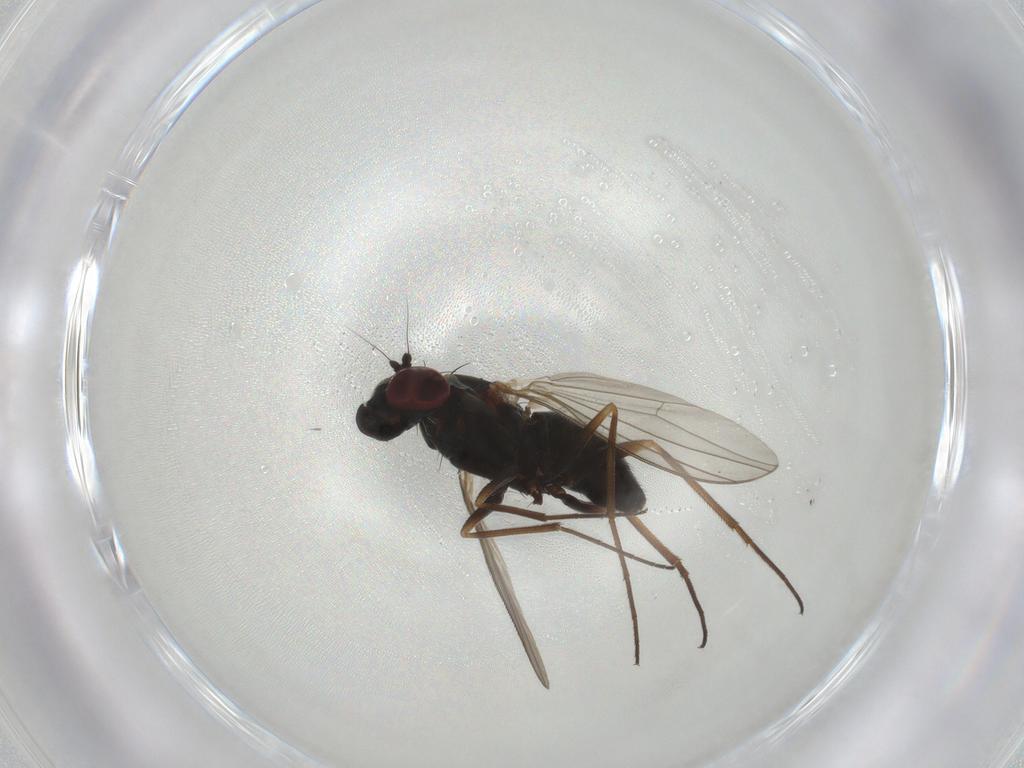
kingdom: Animalia
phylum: Arthropoda
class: Insecta
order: Diptera
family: Dolichopodidae
